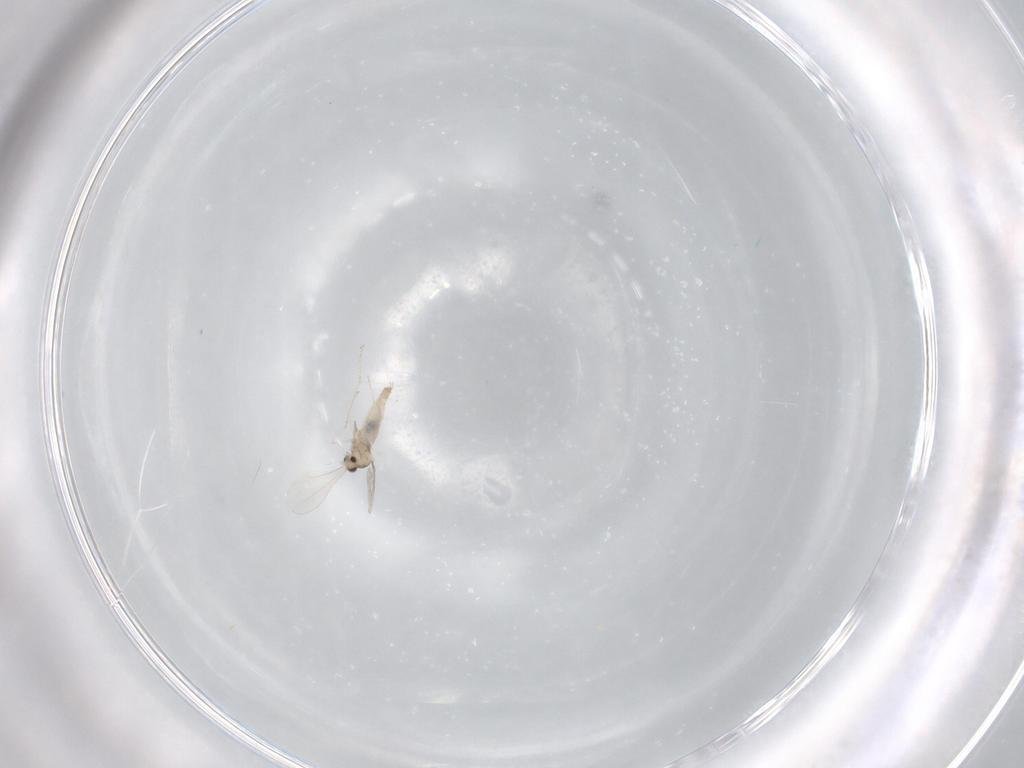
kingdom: Animalia
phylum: Arthropoda
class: Insecta
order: Diptera
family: Cecidomyiidae
